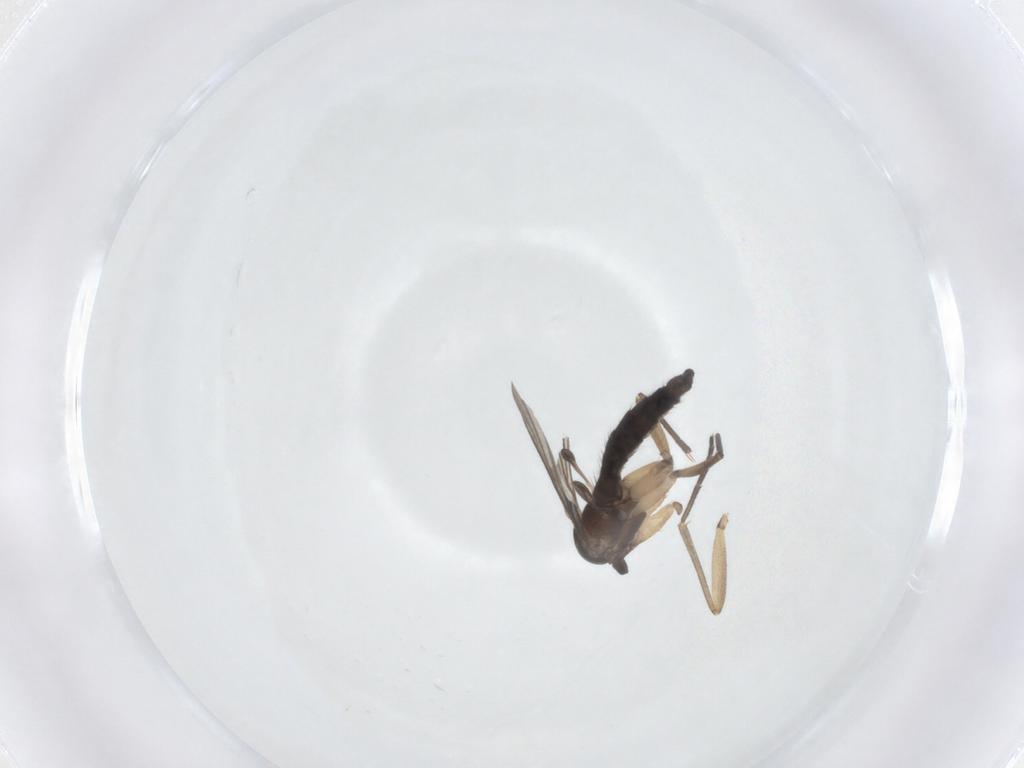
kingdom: Animalia
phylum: Arthropoda
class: Insecta
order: Diptera
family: Sciaridae
